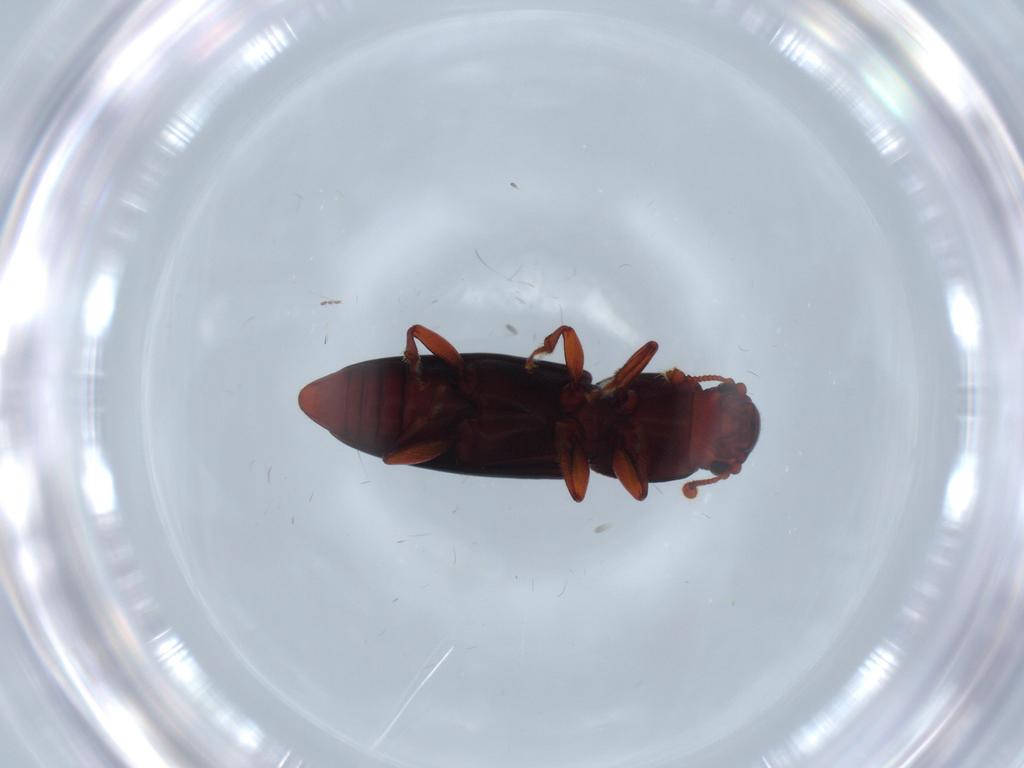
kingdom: Animalia
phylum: Arthropoda
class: Insecta
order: Coleoptera
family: Monotomidae
